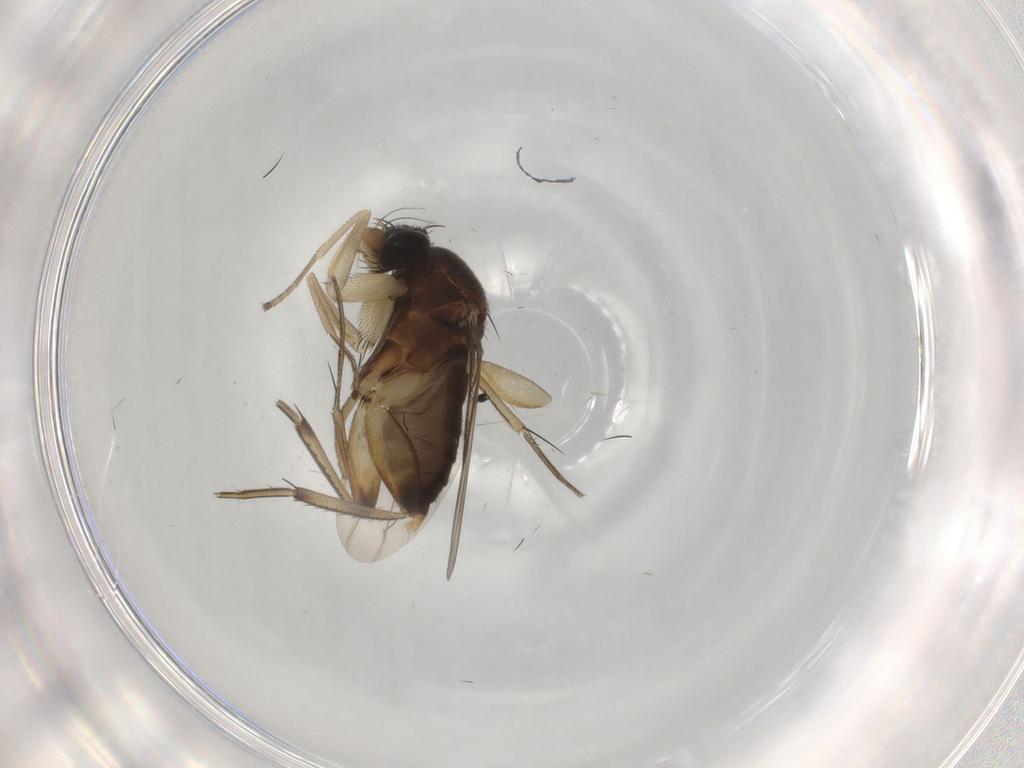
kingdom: Animalia
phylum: Arthropoda
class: Insecta
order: Diptera
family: Phoridae
